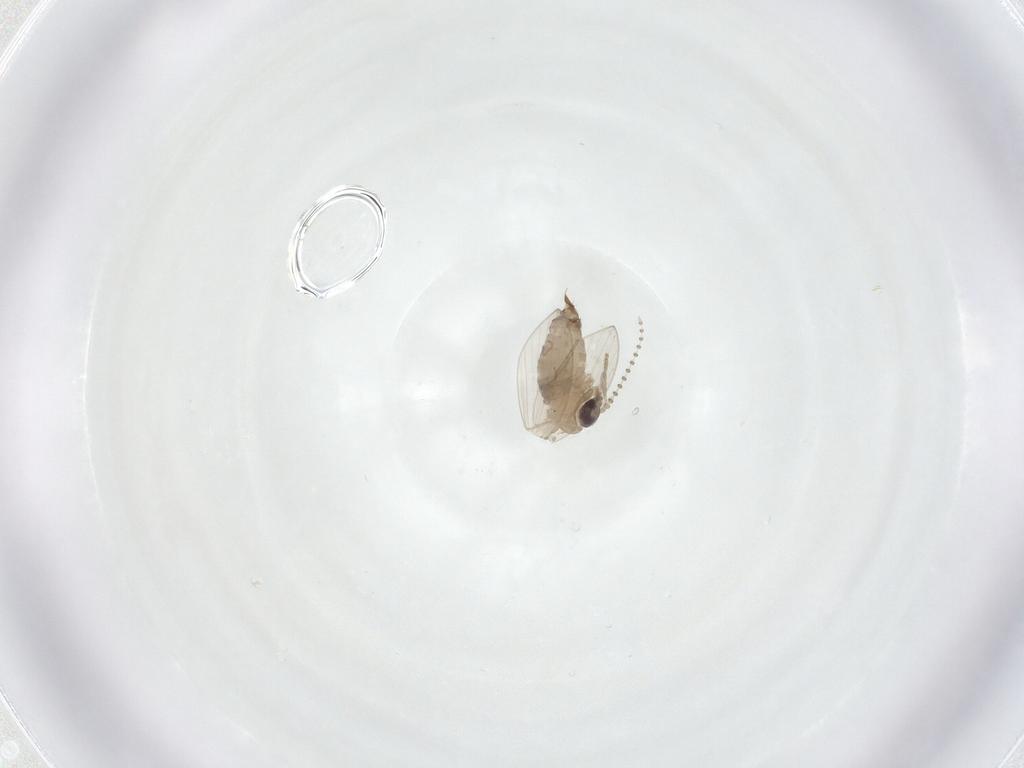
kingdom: Animalia
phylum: Arthropoda
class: Insecta
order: Diptera
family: Psychodidae
